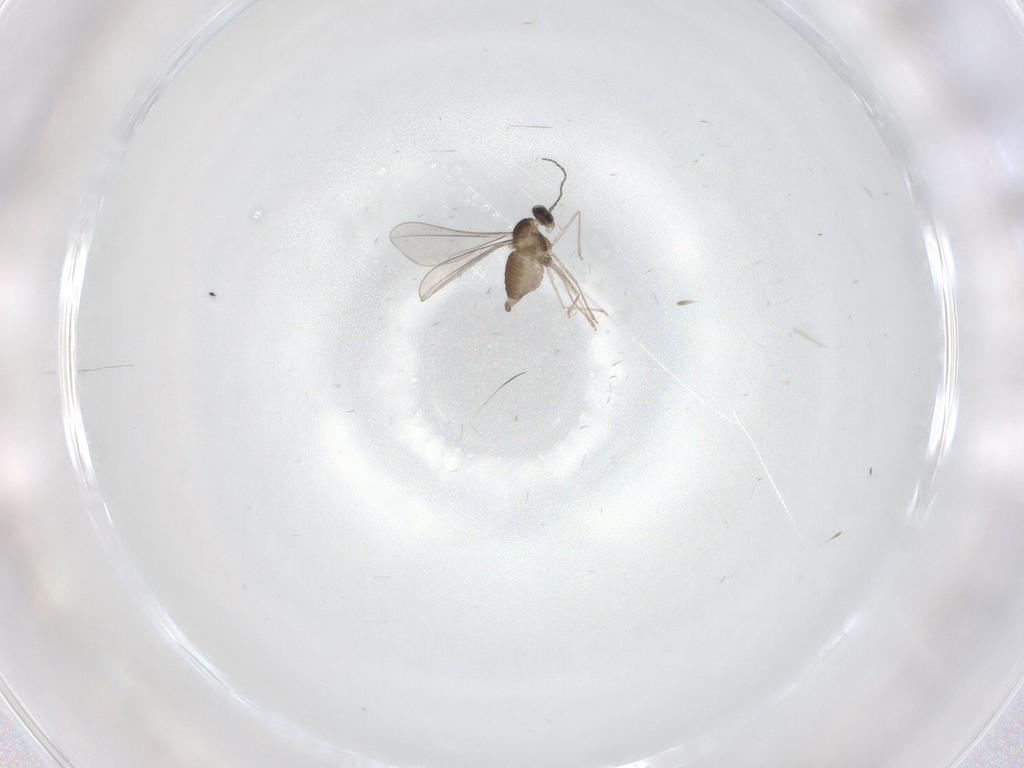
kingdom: Animalia
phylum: Arthropoda
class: Insecta
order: Diptera
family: Cecidomyiidae
